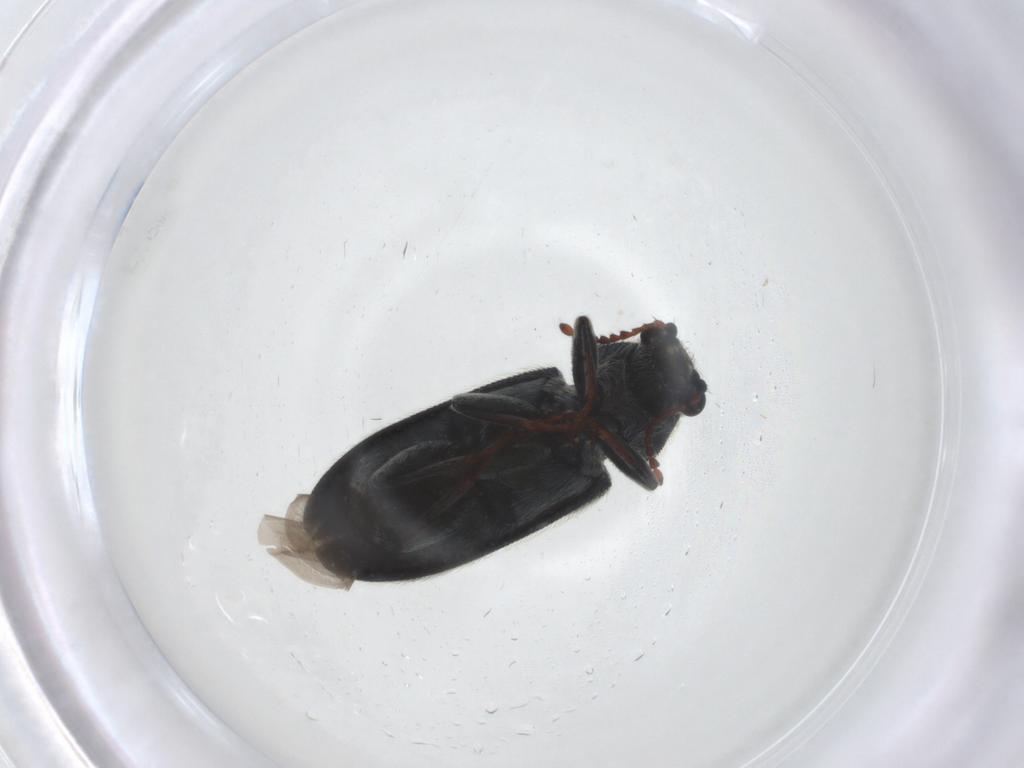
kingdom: Animalia
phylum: Arthropoda
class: Insecta
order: Coleoptera
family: Melyridae
